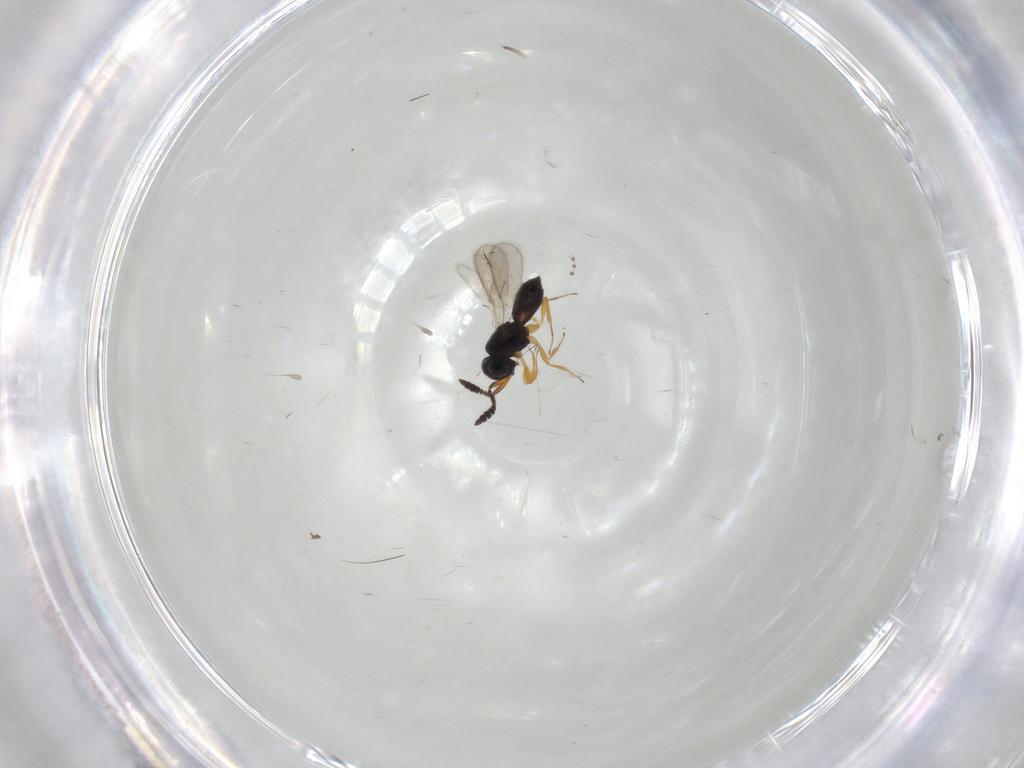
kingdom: Animalia
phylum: Arthropoda
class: Insecta
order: Hymenoptera
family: Scelionidae
